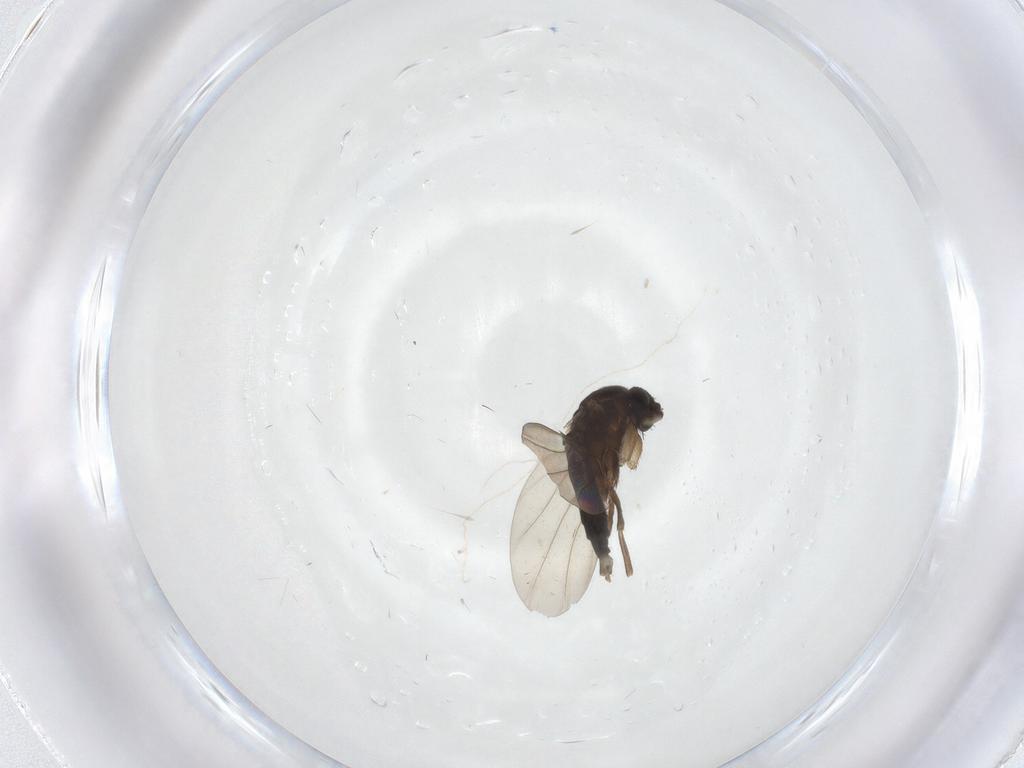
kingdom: Animalia
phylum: Arthropoda
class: Insecta
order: Diptera
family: Phoridae
